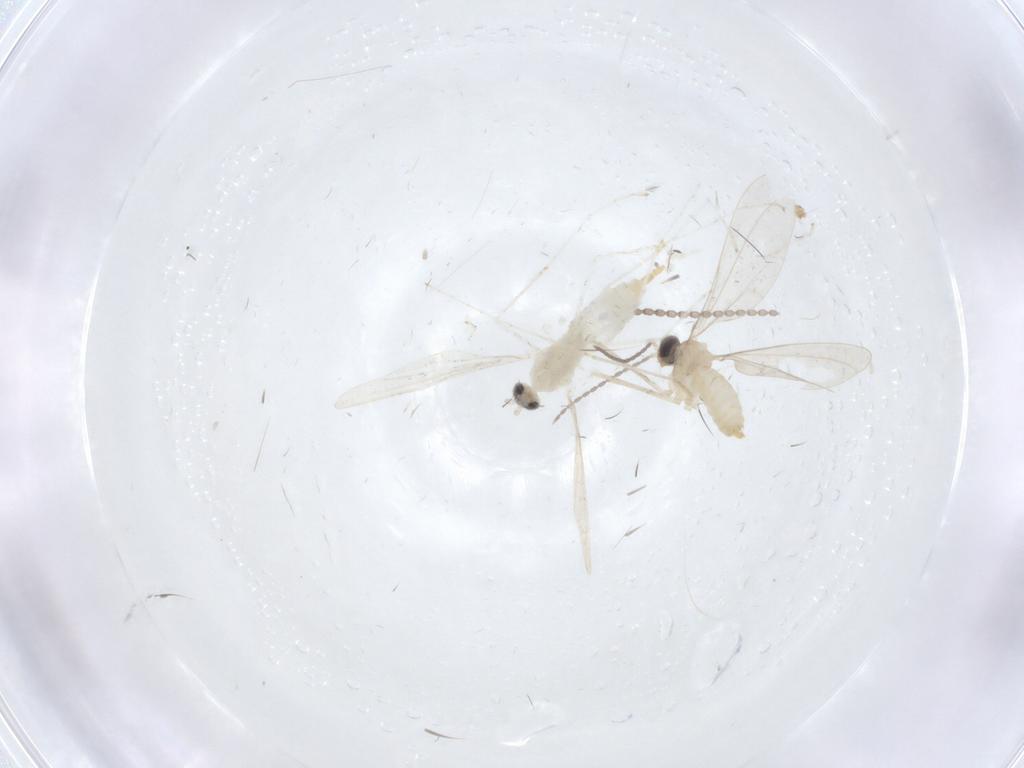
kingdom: Animalia
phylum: Arthropoda
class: Insecta
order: Diptera
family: Cecidomyiidae
